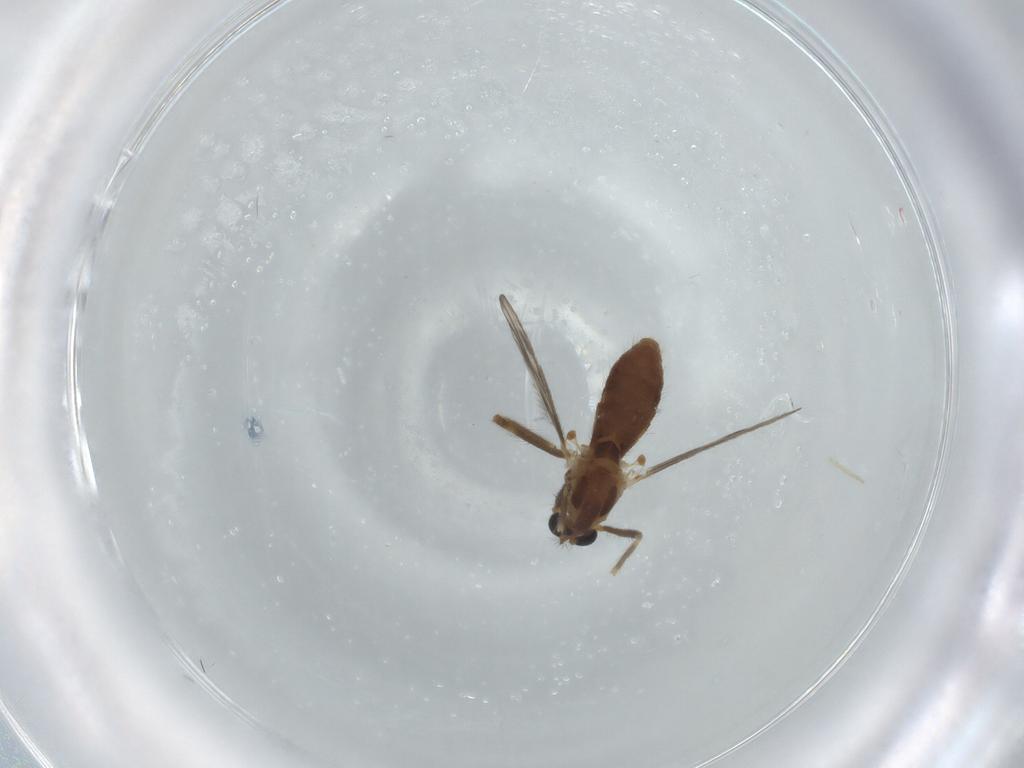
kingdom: Animalia
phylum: Arthropoda
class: Insecta
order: Diptera
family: Chironomidae
